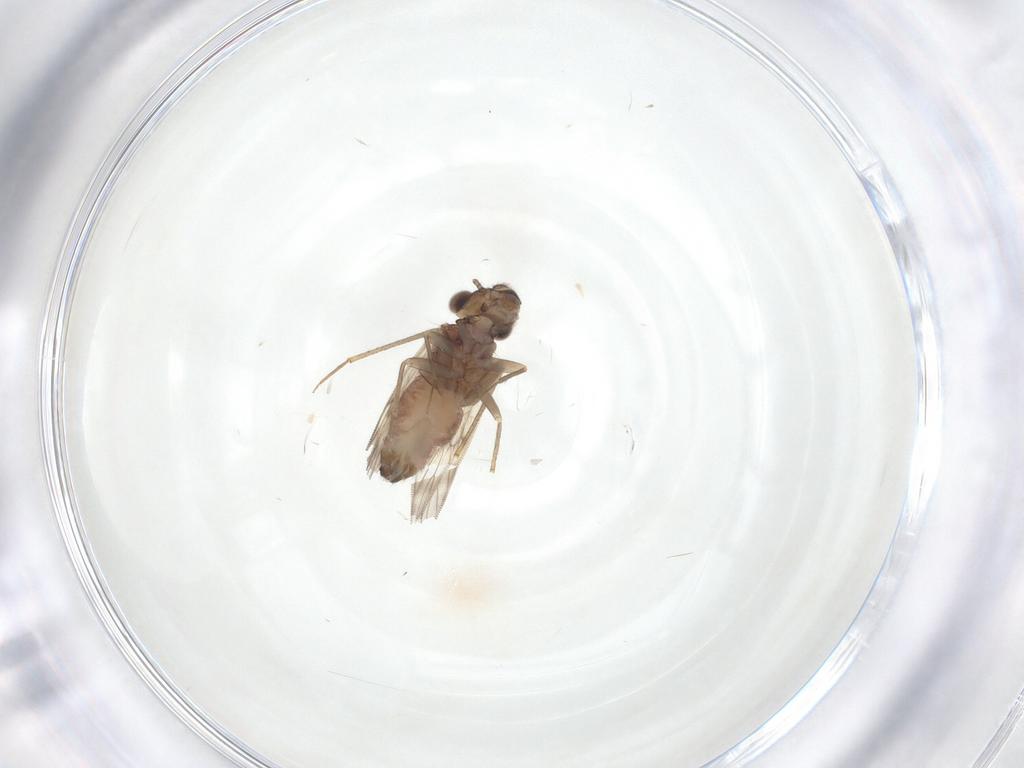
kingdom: Animalia
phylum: Arthropoda
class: Insecta
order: Psocodea
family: Lepidopsocidae
